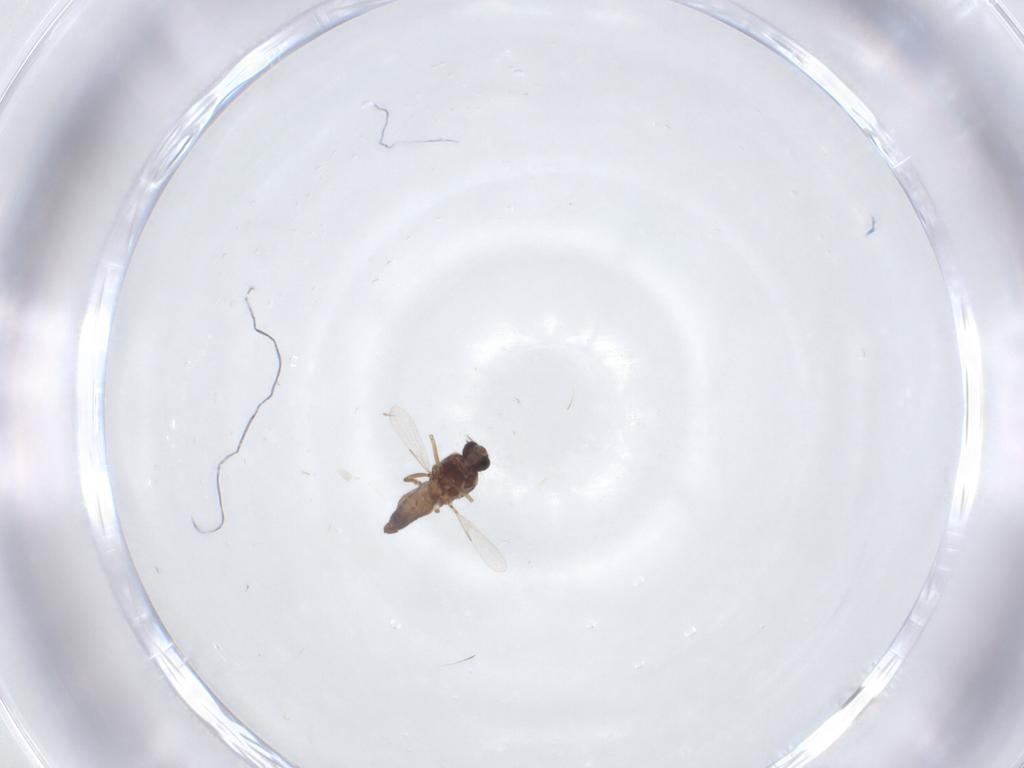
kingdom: Animalia
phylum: Arthropoda
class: Insecta
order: Diptera
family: Ceratopogonidae
